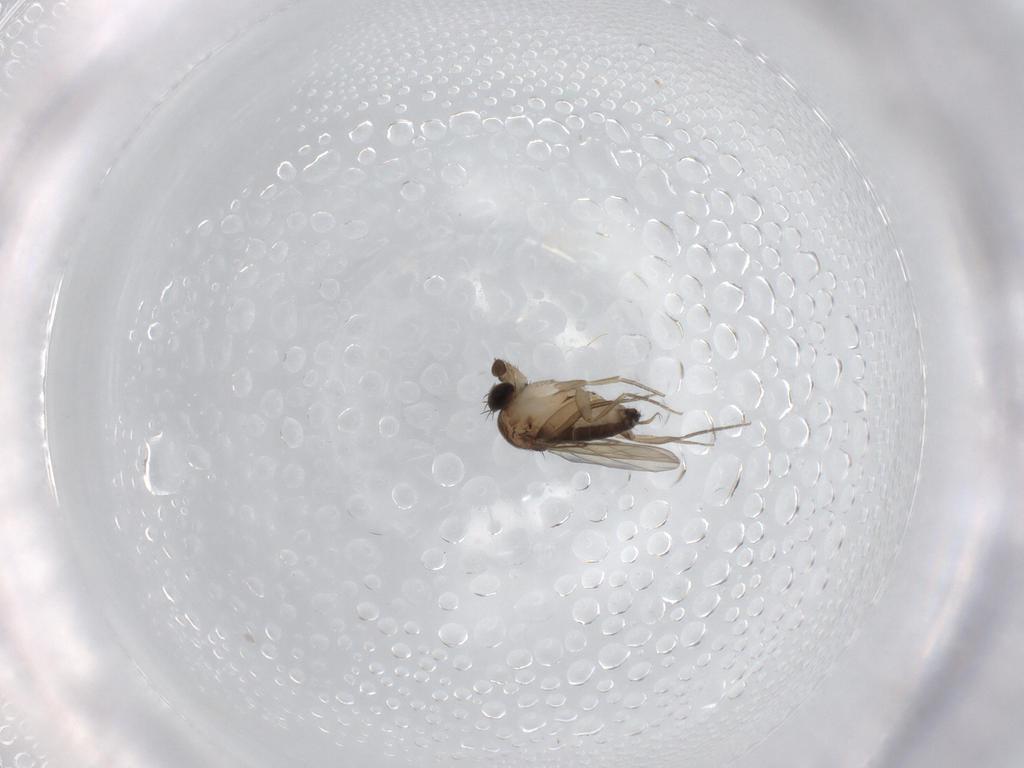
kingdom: Animalia
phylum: Arthropoda
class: Insecta
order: Diptera
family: Phoridae
